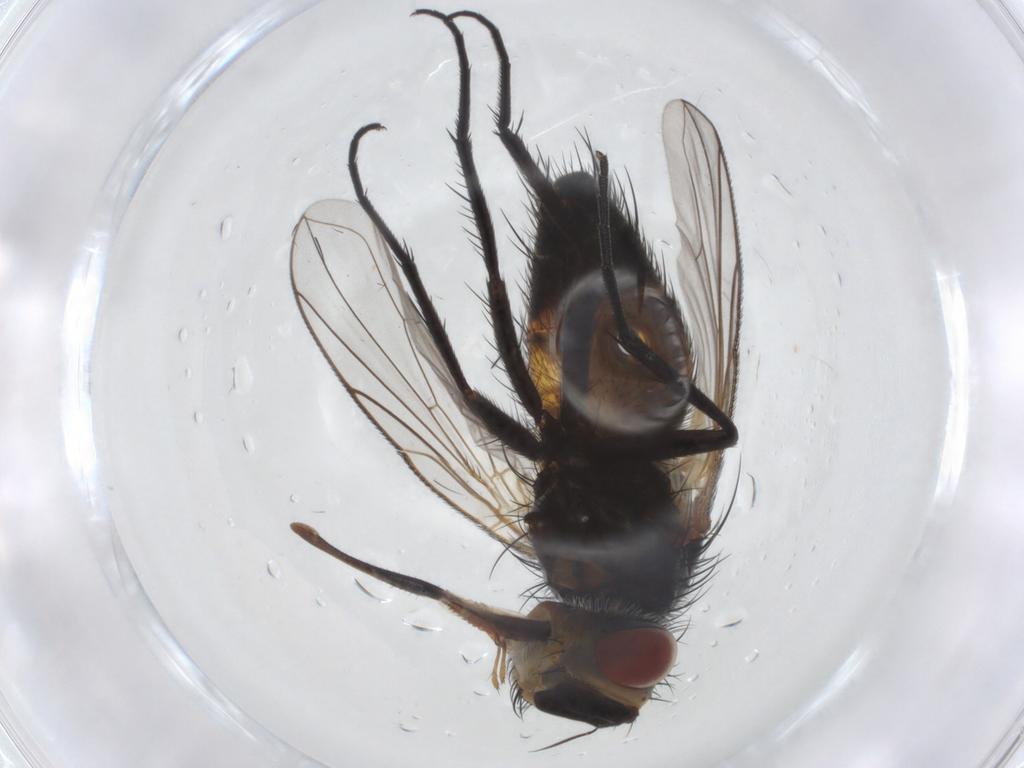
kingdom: Animalia
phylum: Arthropoda
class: Insecta
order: Diptera
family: Tachinidae
